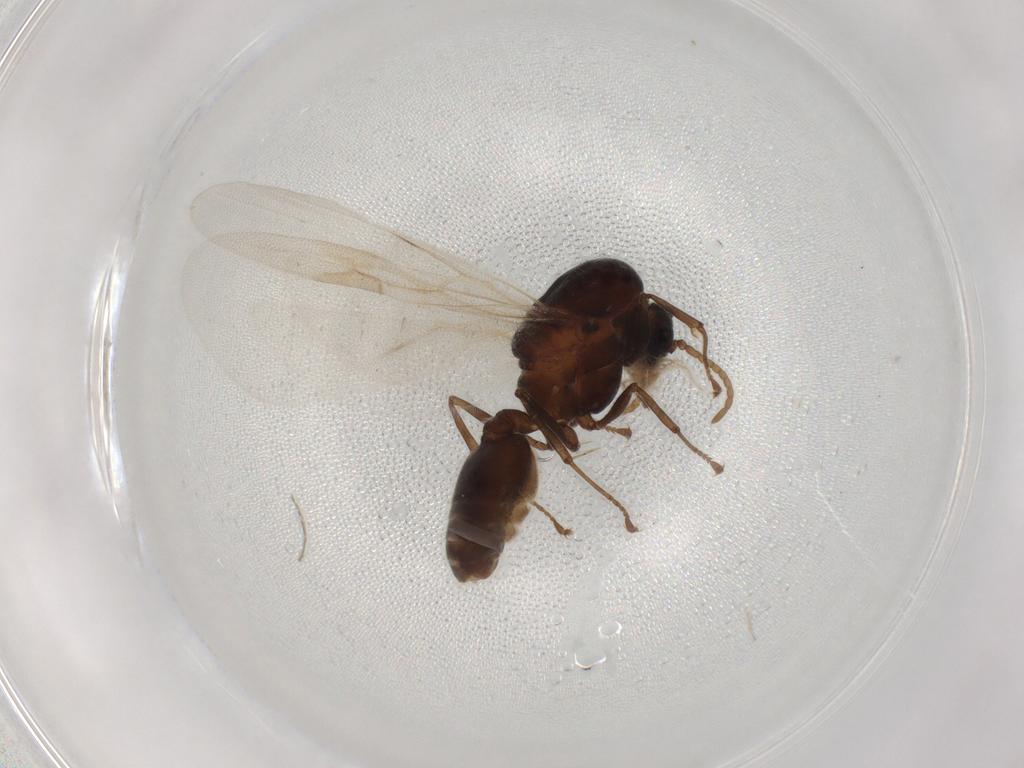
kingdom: Animalia
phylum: Arthropoda
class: Insecta
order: Hymenoptera
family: Formicidae
